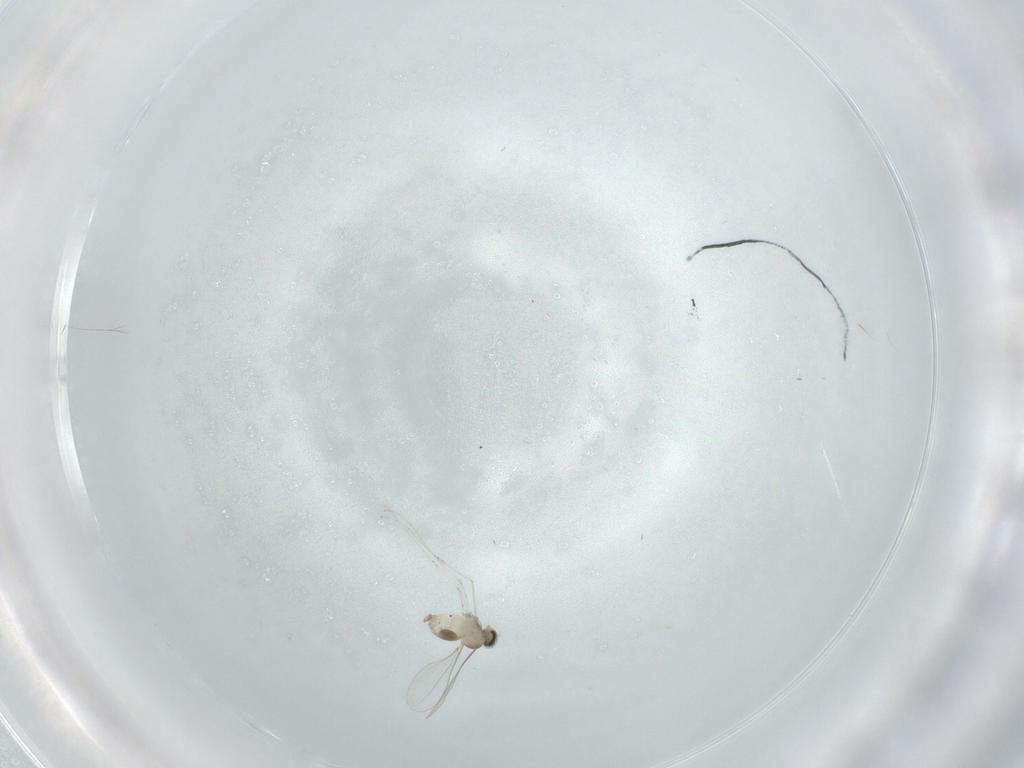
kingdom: Animalia
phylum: Arthropoda
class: Insecta
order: Diptera
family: Cecidomyiidae
